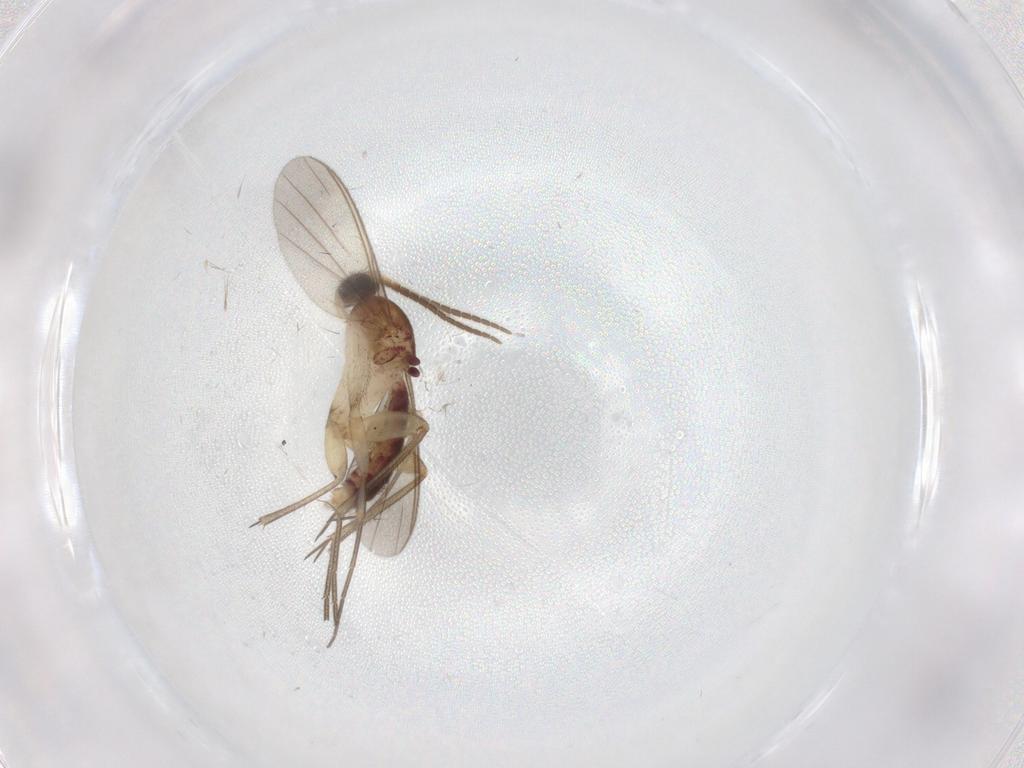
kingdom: Animalia
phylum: Arthropoda
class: Insecta
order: Diptera
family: Mycetophilidae
